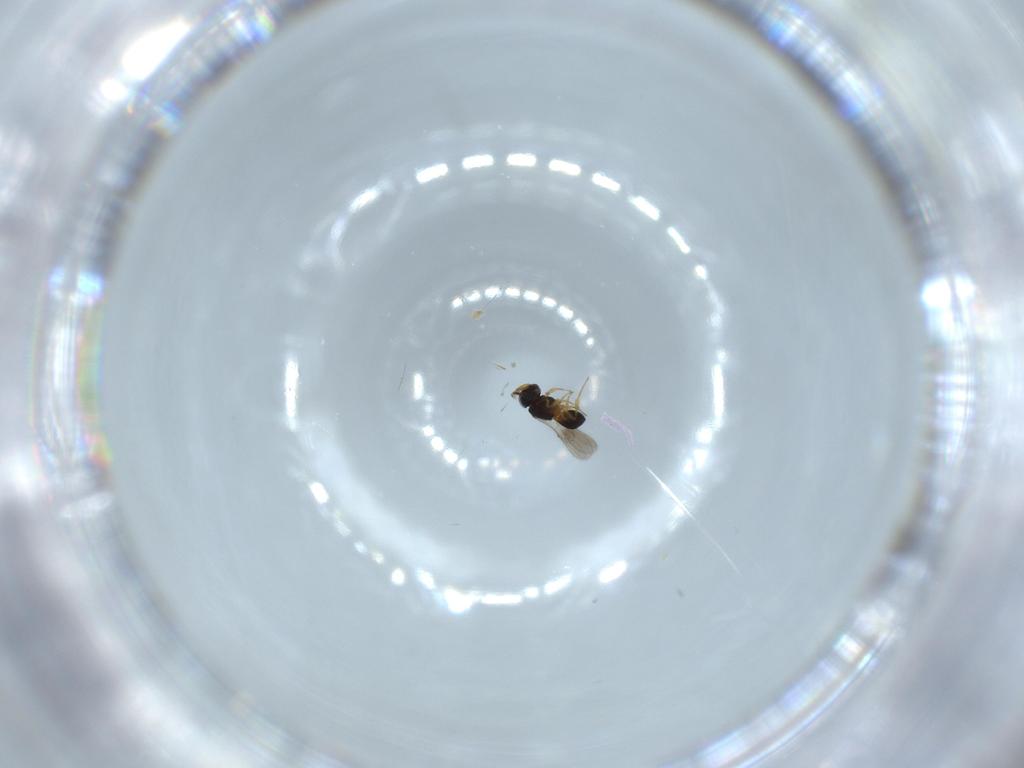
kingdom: Animalia
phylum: Arthropoda
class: Insecta
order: Hymenoptera
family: Scelionidae
